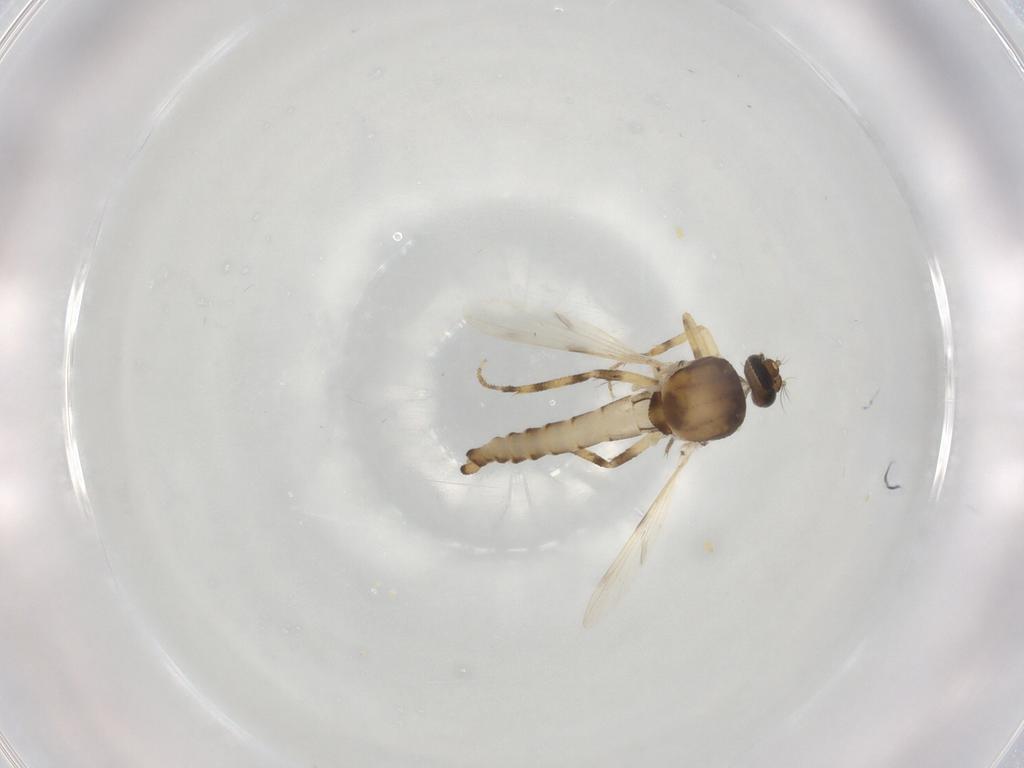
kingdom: Animalia
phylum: Arthropoda
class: Insecta
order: Diptera
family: Ceratopogonidae
